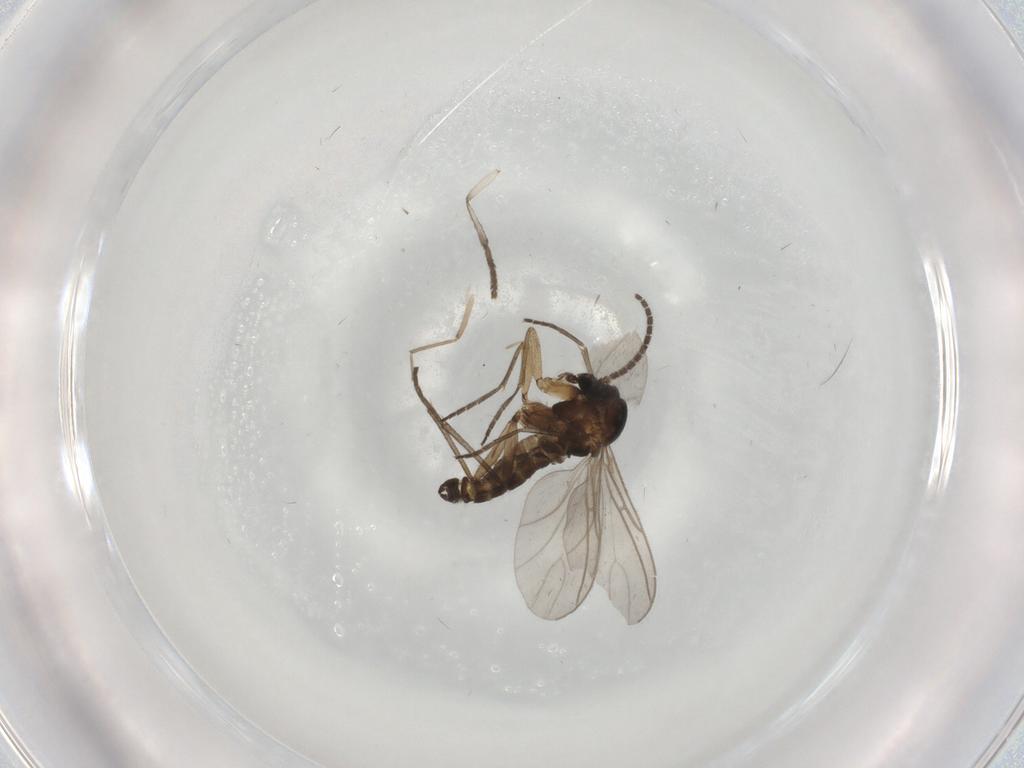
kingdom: Animalia
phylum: Arthropoda
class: Insecta
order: Diptera
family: Sciaridae
